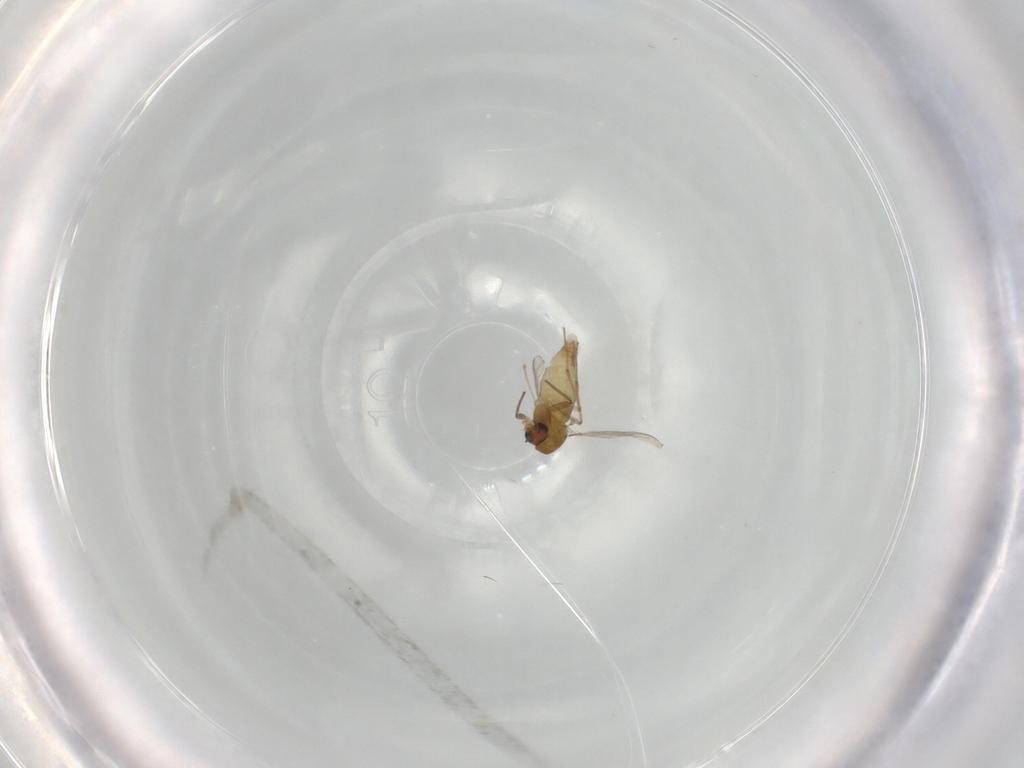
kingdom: Animalia
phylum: Arthropoda
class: Insecta
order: Diptera
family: Chironomidae
